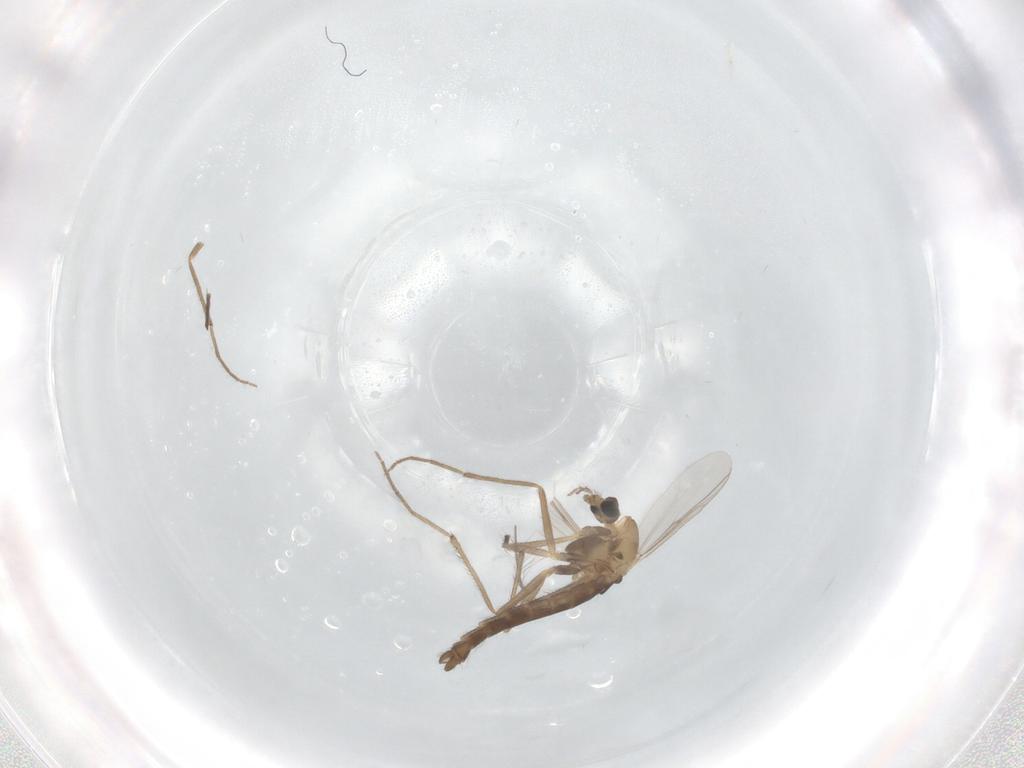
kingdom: Animalia
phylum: Arthropoda
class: Insecta
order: Diptera
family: Chironomidae
